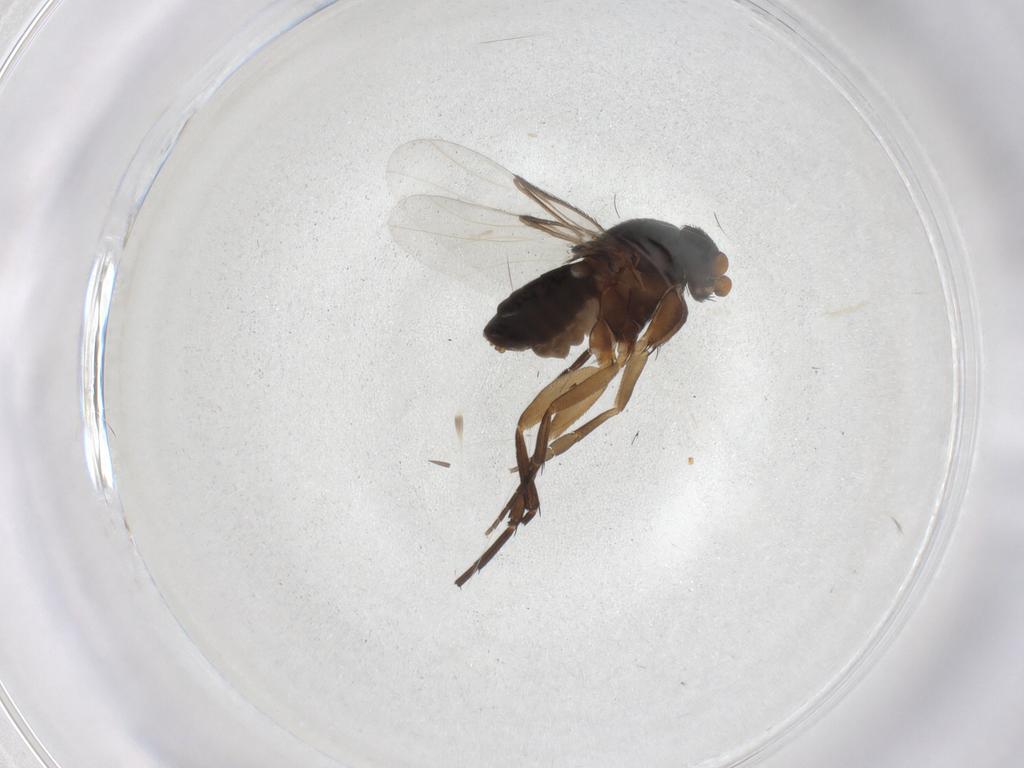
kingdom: Animalia
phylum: Arthropoda
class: Insecta
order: Diptera
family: Phoridae
